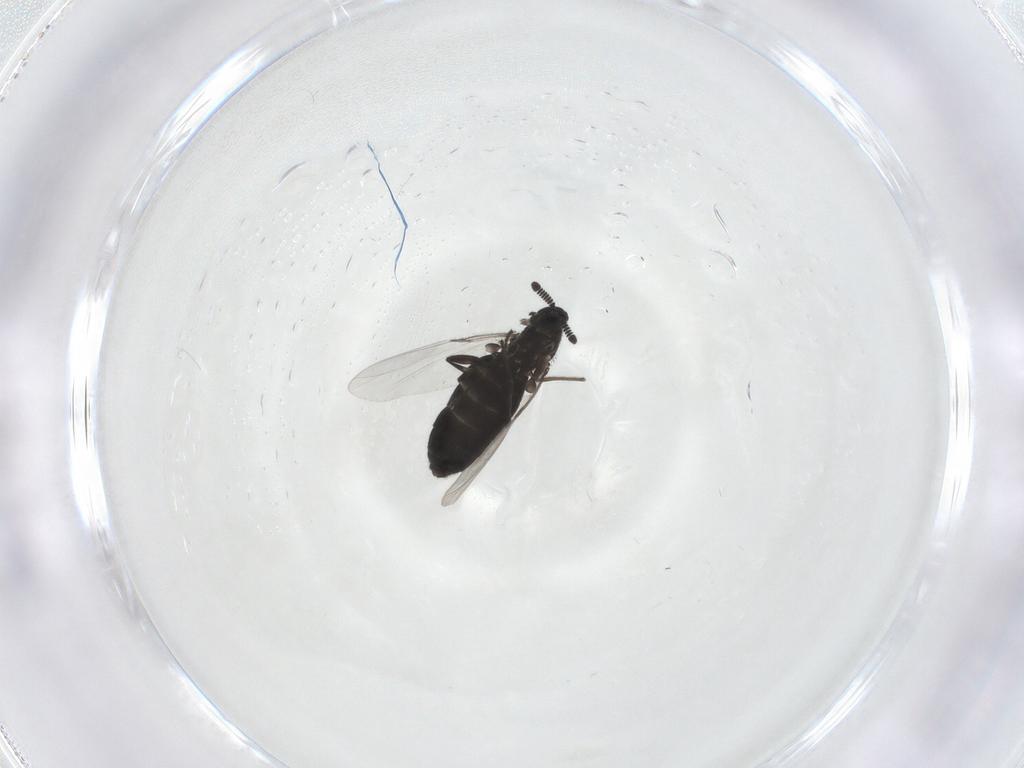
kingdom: Animalia
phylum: Arthropoda
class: Insecta
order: Diptera
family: Scatopsidae
